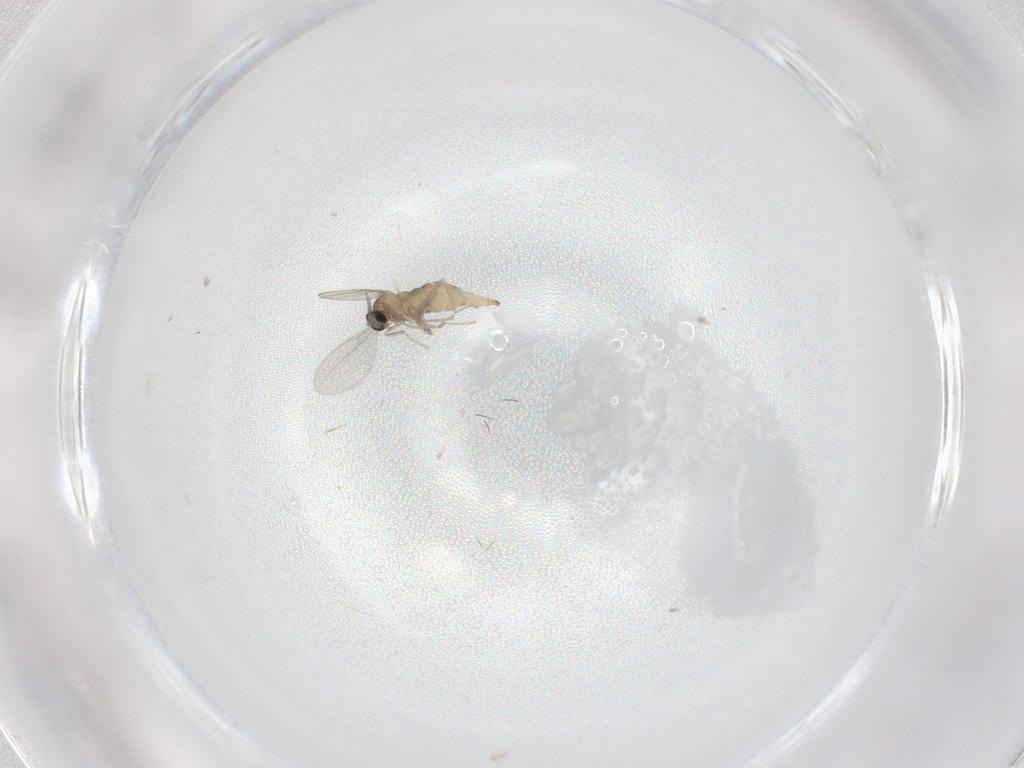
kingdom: Animalia
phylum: Arthropoda
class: Insecta
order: Diptera
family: Cecidomyiidae
